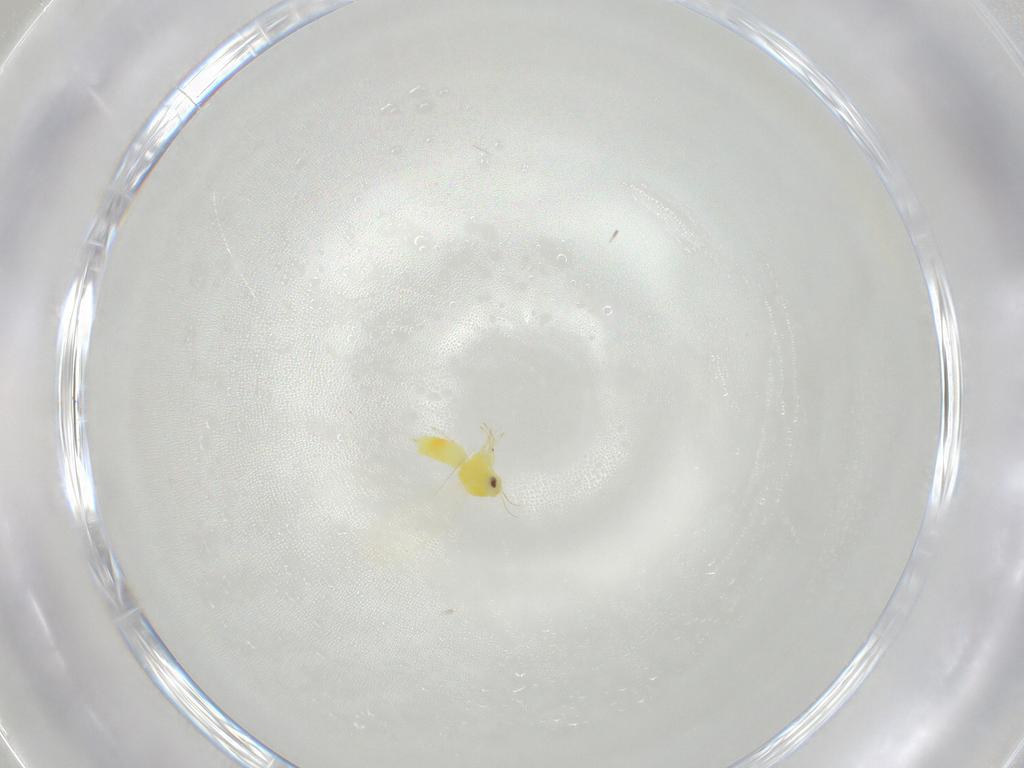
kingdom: Animalia
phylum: Arthropoda
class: Insecta
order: Hemiptera
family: Aleyrodidae
